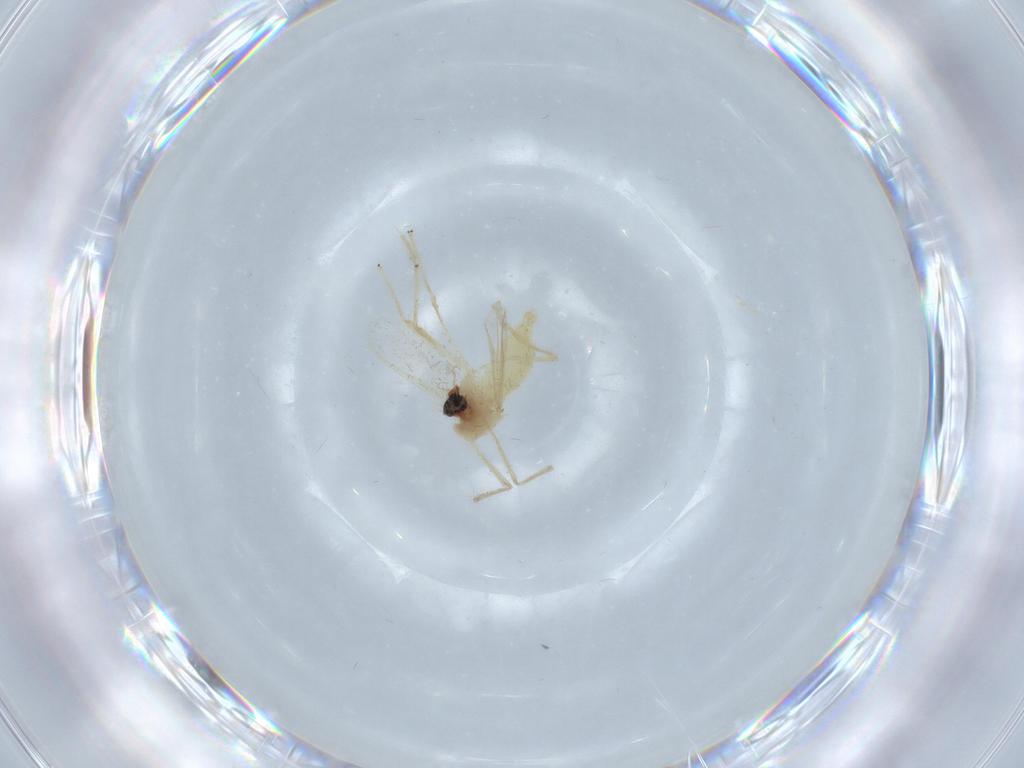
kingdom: Animalia
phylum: Arthropoda
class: Insecta
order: Diptera
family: Chironomidae
